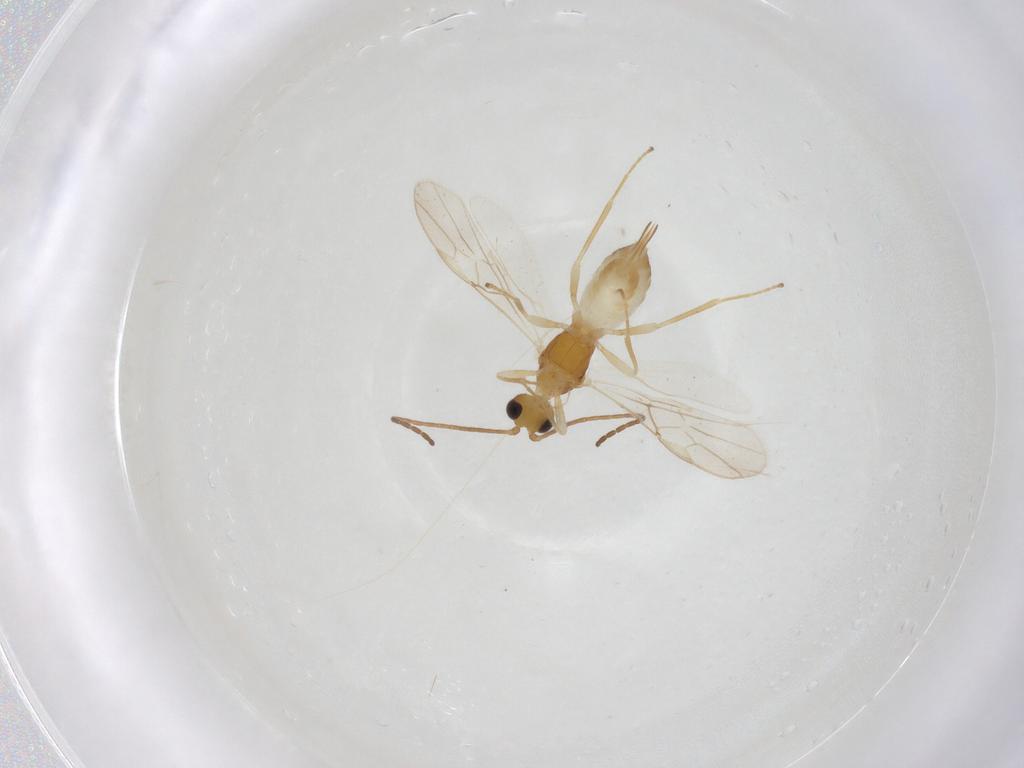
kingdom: Animalia
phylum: Arthropoda
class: Insecta
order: Hymenoptera
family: Braconidae
